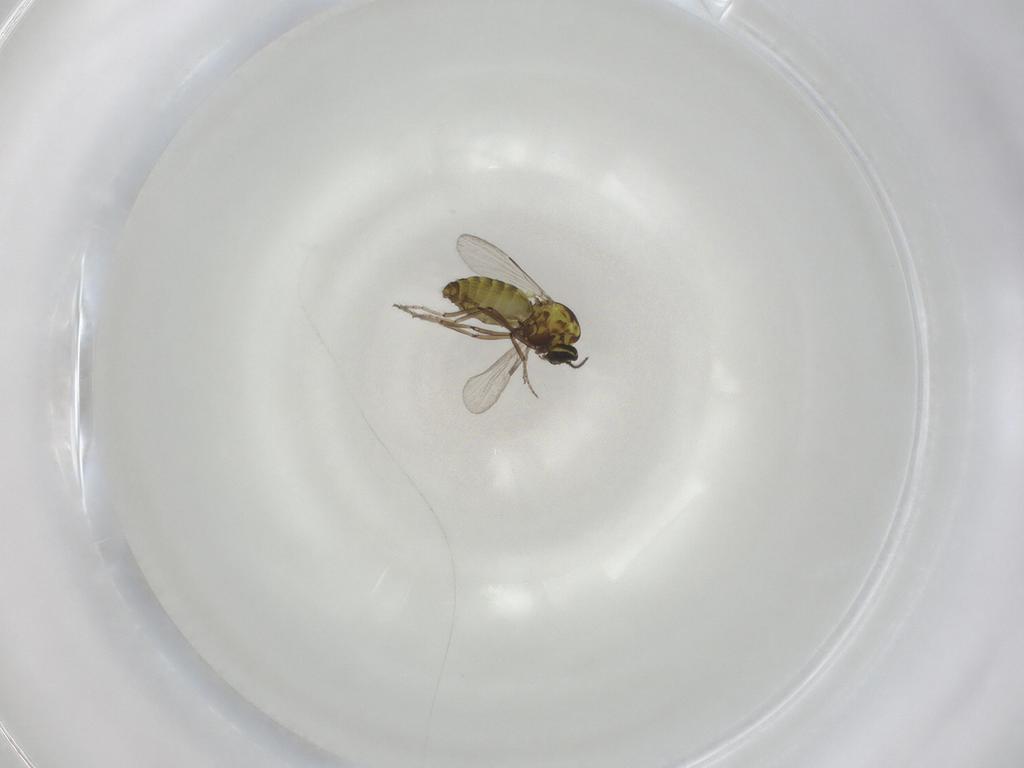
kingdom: Animalia
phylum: Arthropoda
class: Insecta
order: Diptera
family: Ceratopogonidae
